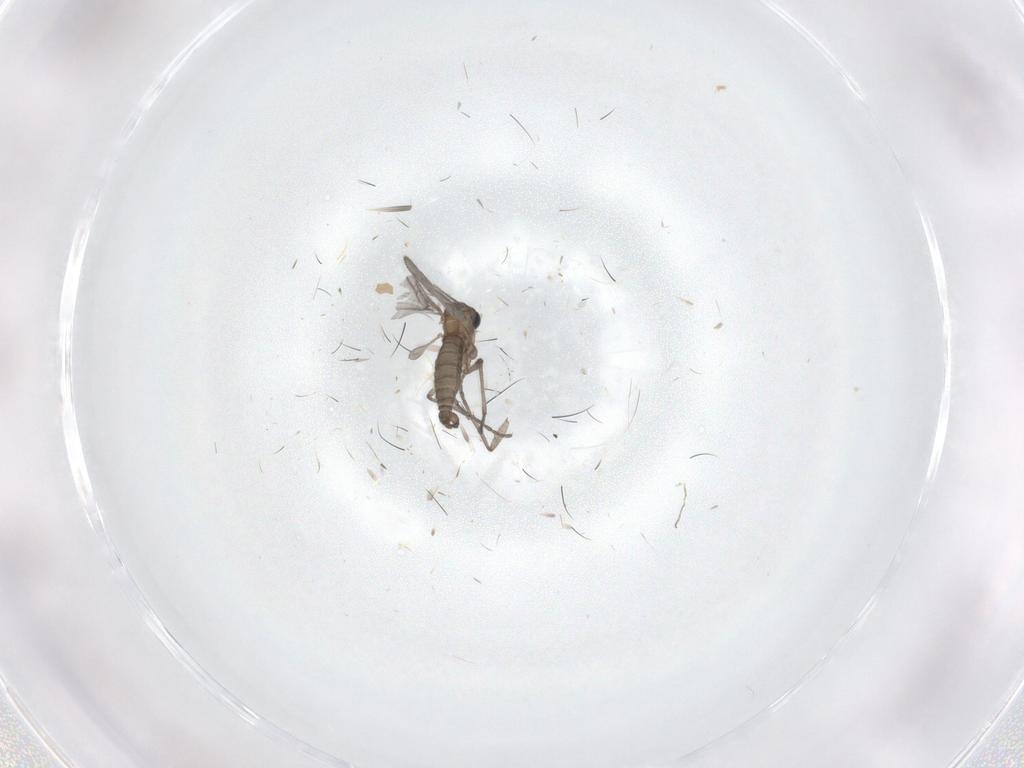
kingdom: Animalia
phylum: Arthropoda
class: Insecta
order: Diptera
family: Sciaridae
